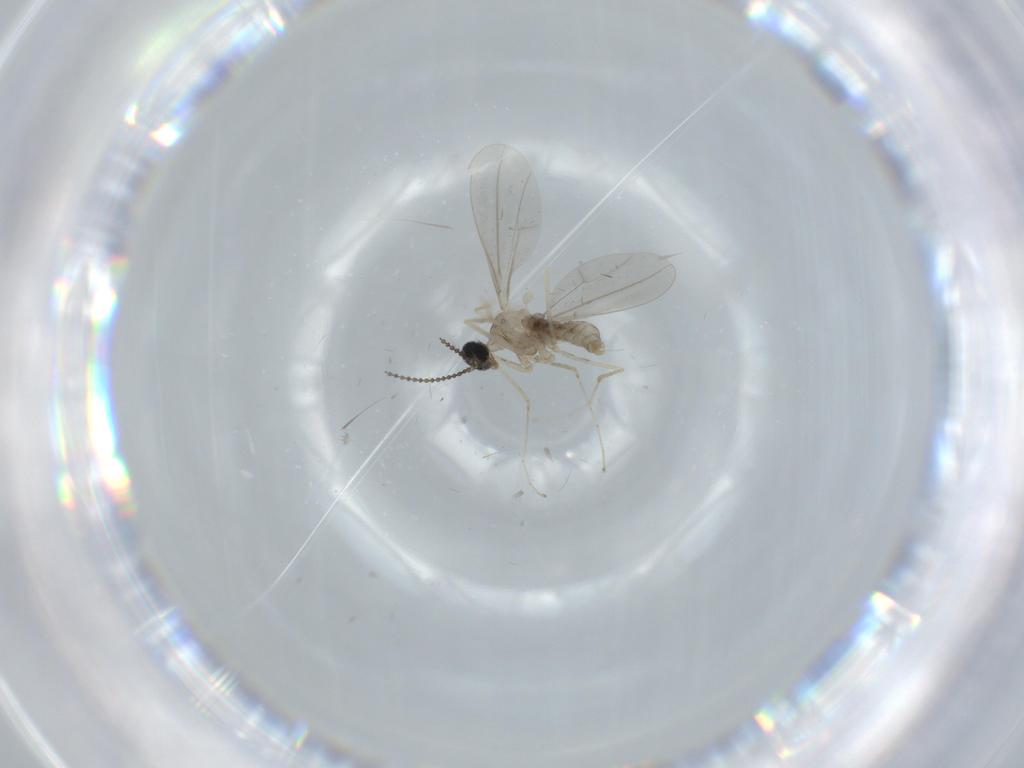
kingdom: Animalia
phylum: Arthropoda
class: Insecta
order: Diptera
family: Cecidomyiidae
